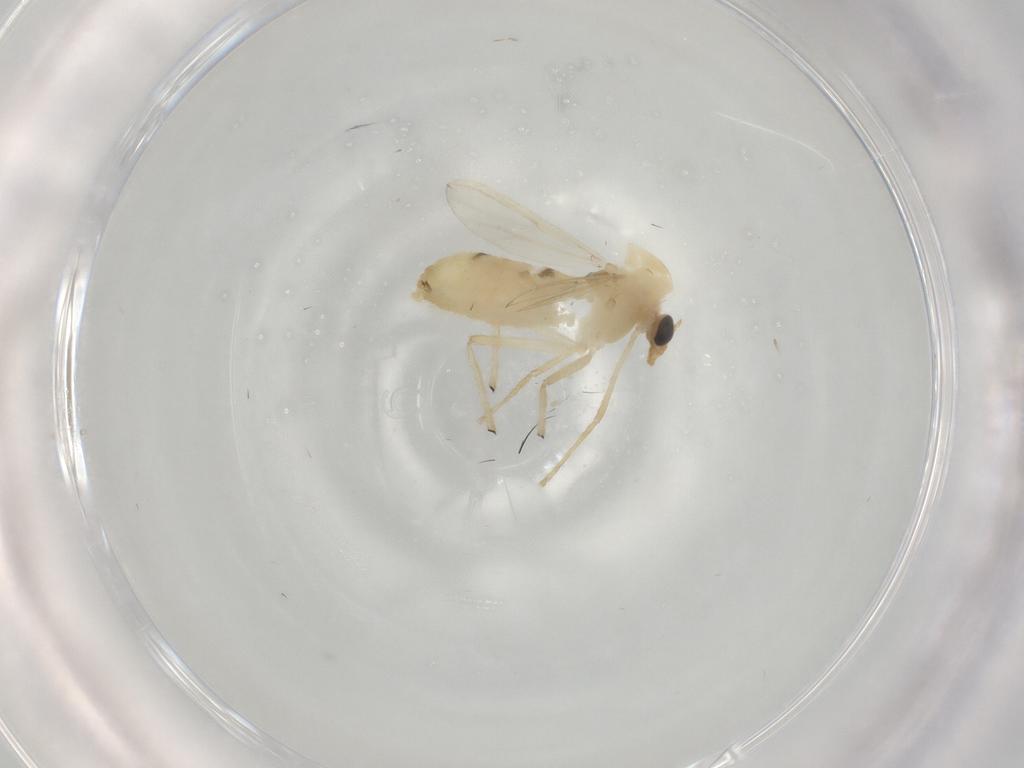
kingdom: Animalia
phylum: Arthropoda
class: Insecta
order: Diptera
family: Chironomidae
